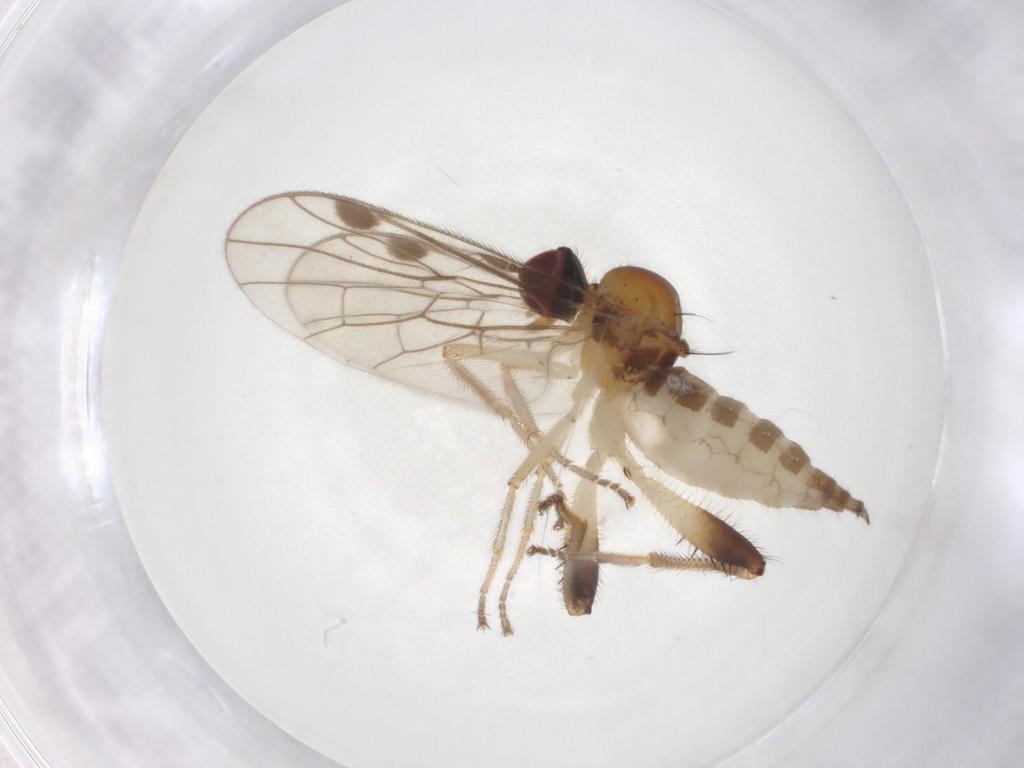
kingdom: Animalia
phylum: Arthropoda
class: Insecta
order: Diptera
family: Hybotidae
